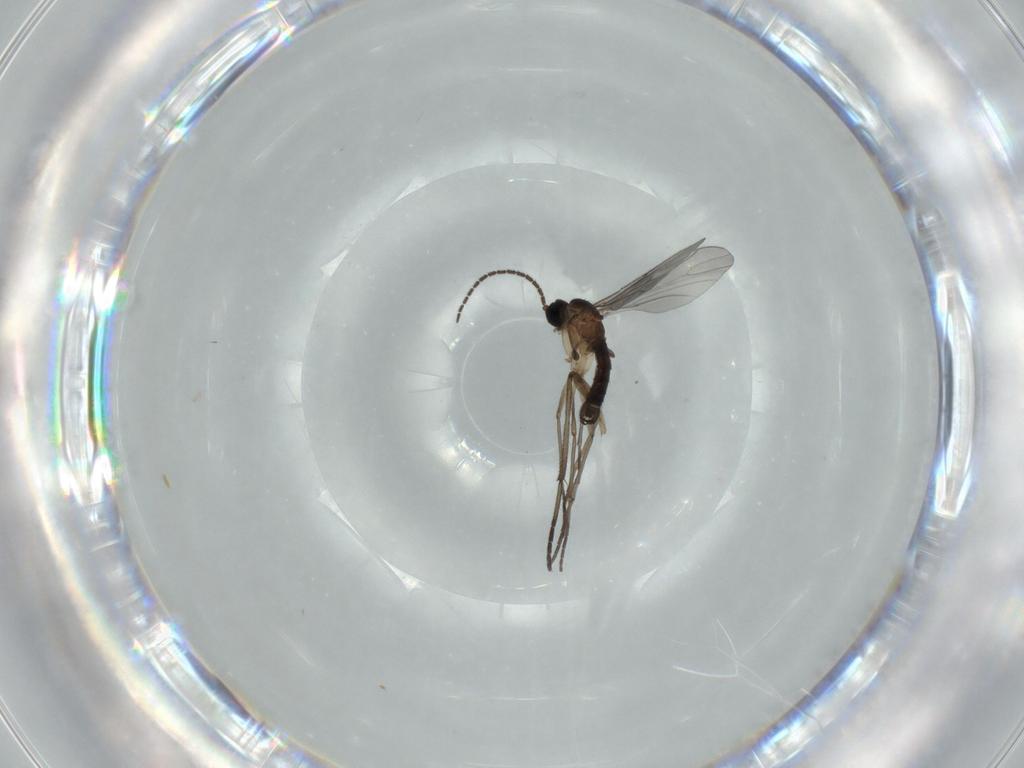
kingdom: Animalia
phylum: Arthropoda
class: Insecta
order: Diptera
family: Sciaridae
